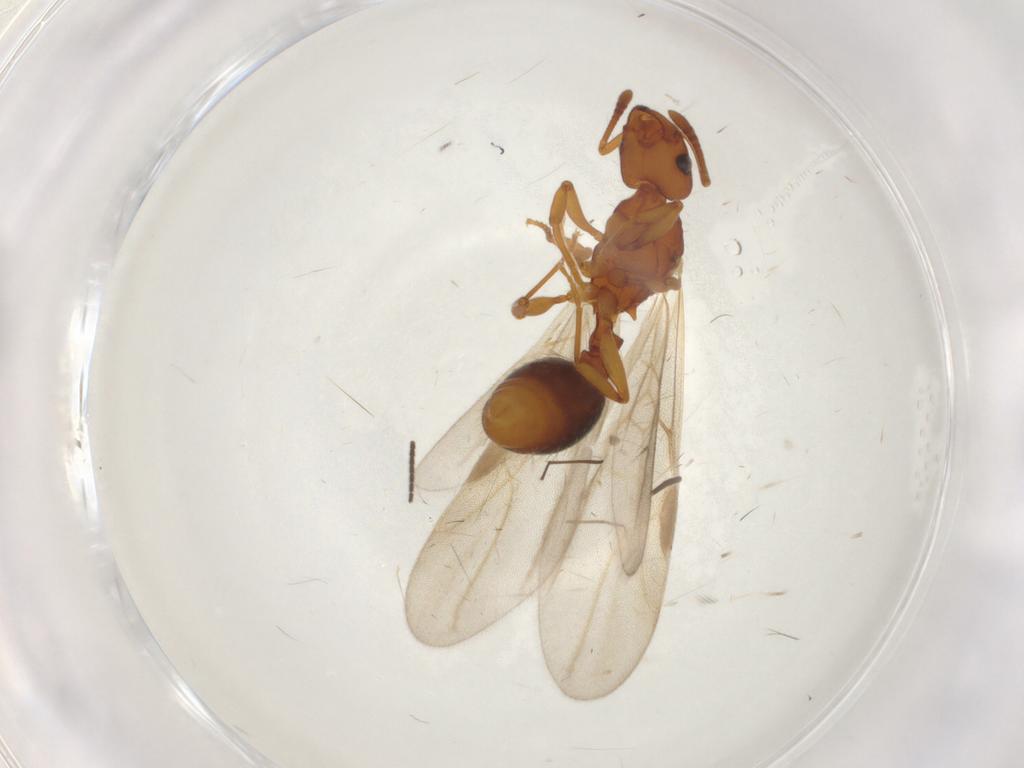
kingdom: Animalia
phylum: Arthropoda
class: Insecta
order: Hymenoptera
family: Formicidae
